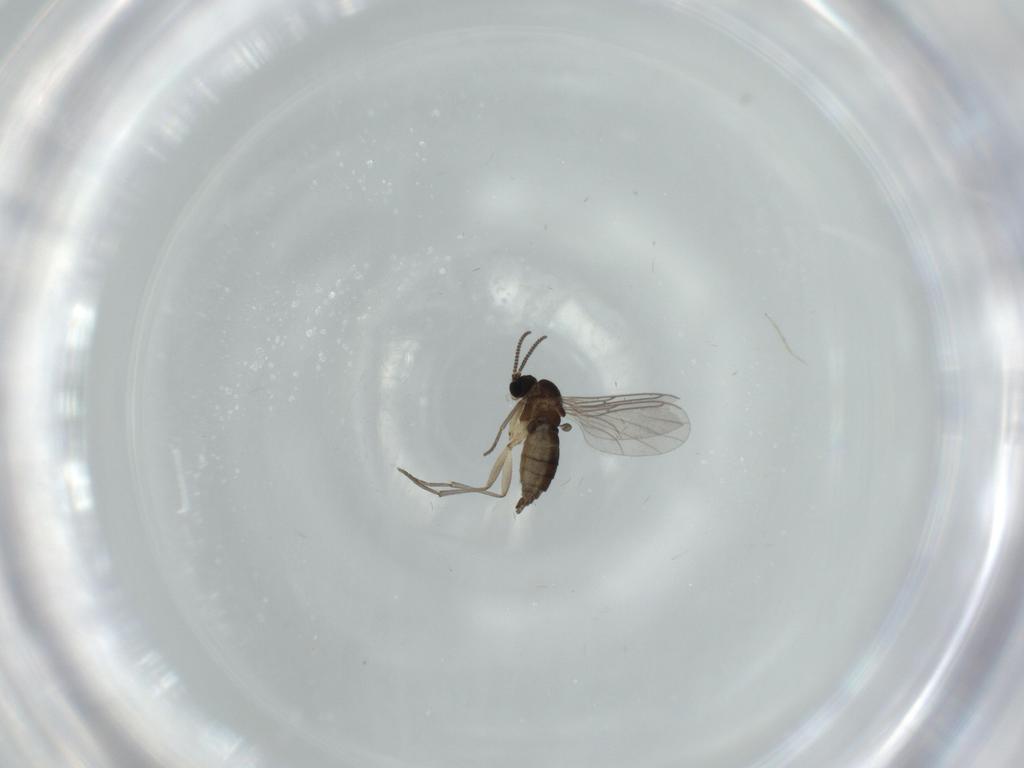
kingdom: Animalia
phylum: Arthropoda
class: Insecta
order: Diptera
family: Sciaridae
